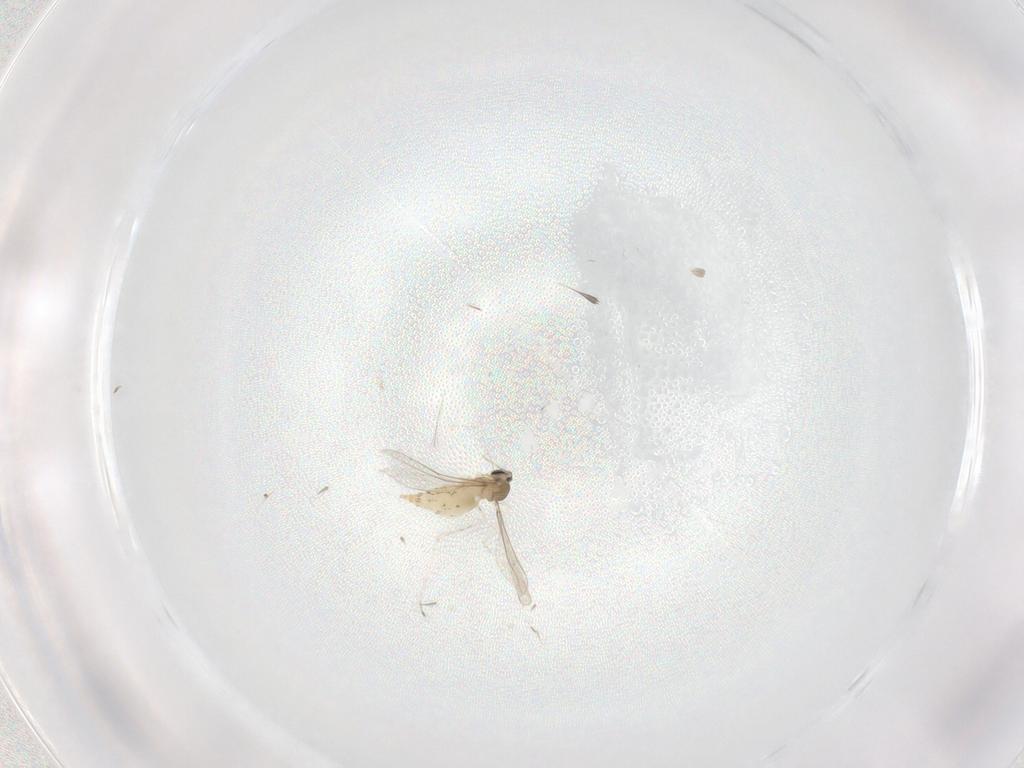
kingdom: Animalia
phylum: Arthropoda
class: Insecta
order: Diptera
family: Cecidomyiidae
